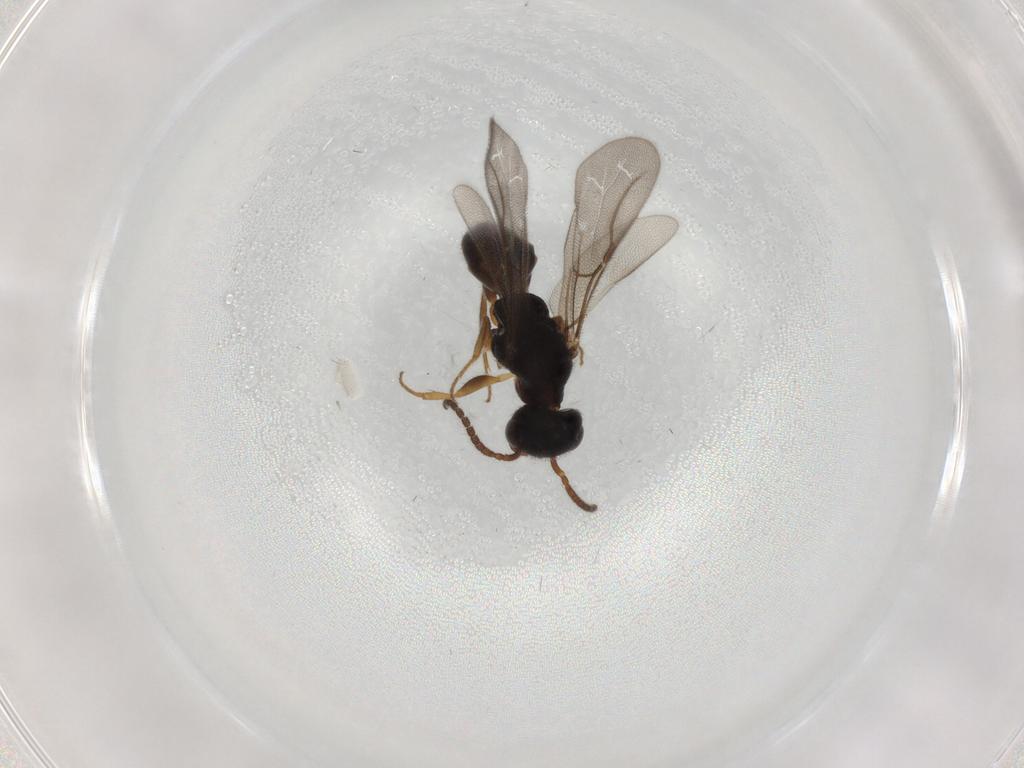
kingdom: Animalia
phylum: Arthropoda
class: Insecta
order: Hymenoptera
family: Bethylidae
